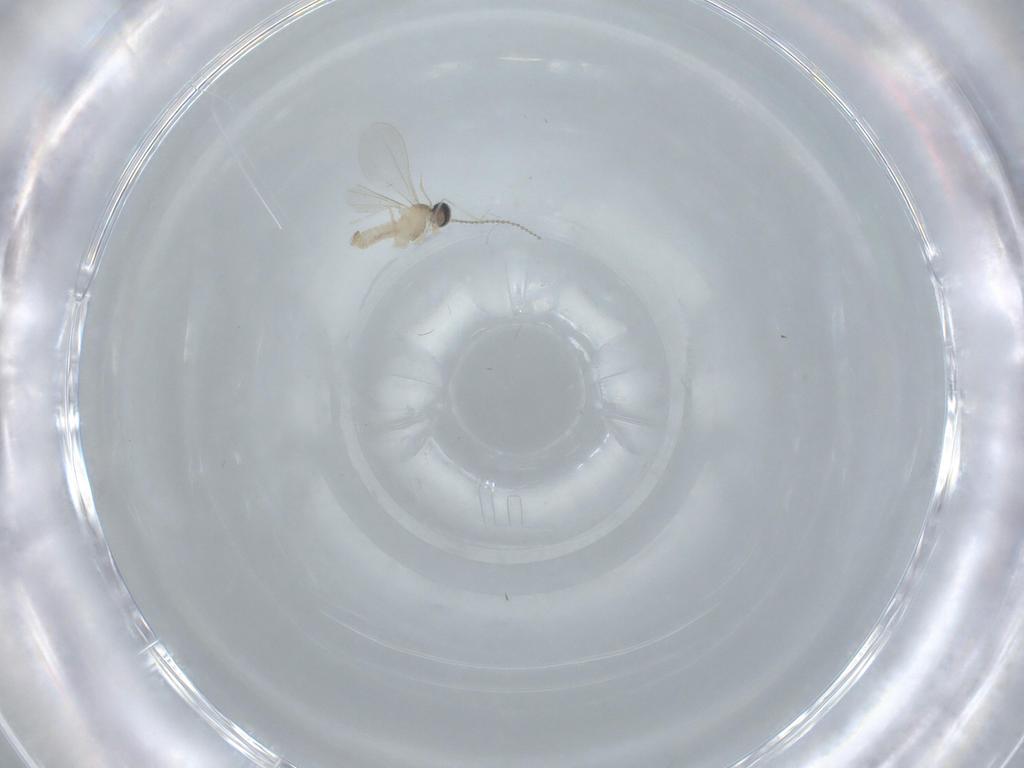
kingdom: Animalia
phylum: Arthropoda
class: Insecta
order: Diptera
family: Cecidomyiidae
